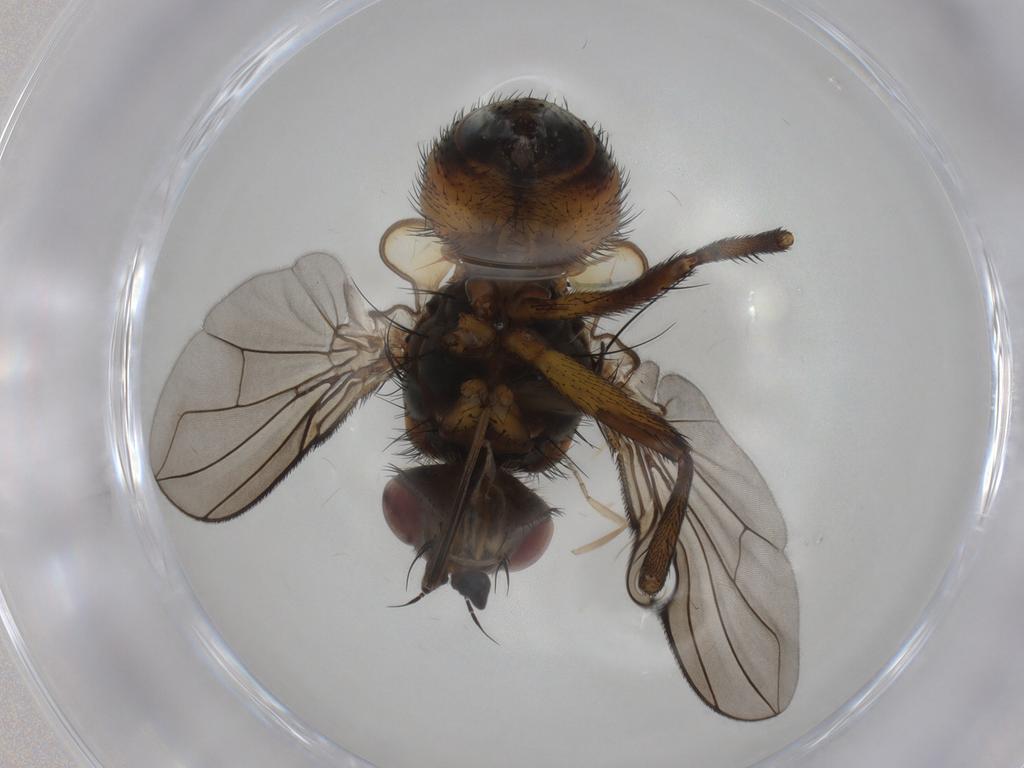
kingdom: Animalia
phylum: Arthropoda
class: Insecta
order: Diptera
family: Tachinidae
